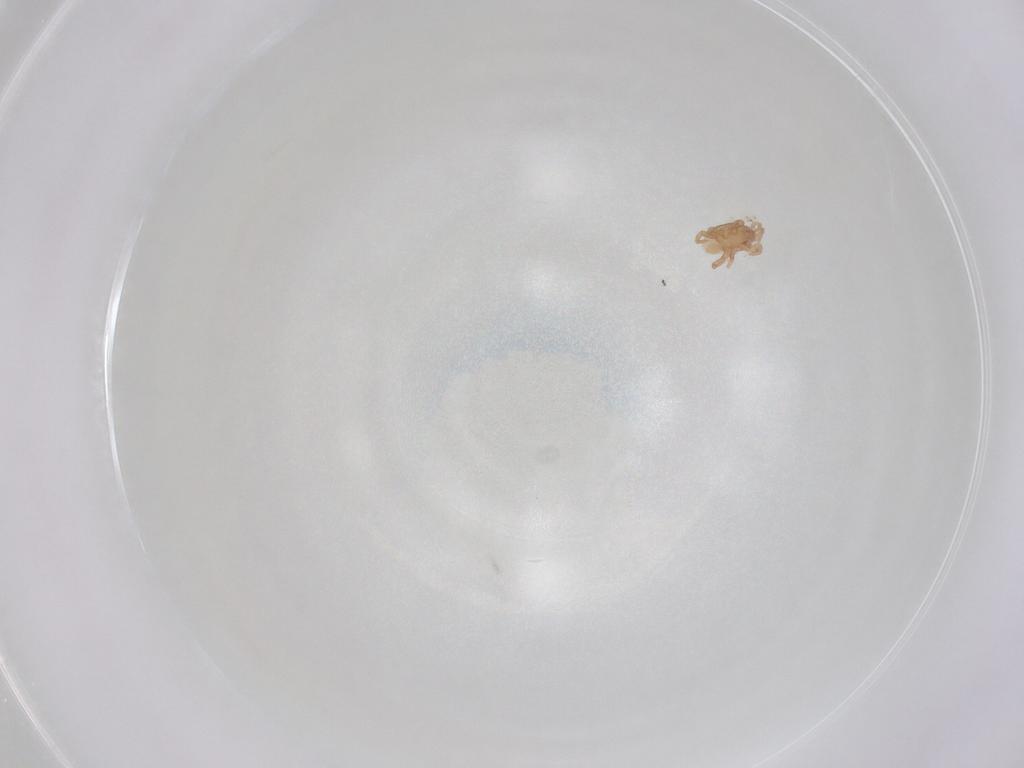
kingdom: Animalia
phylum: Arthropoda
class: Arachnida
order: Mesostigmata
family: Macrochelidae
